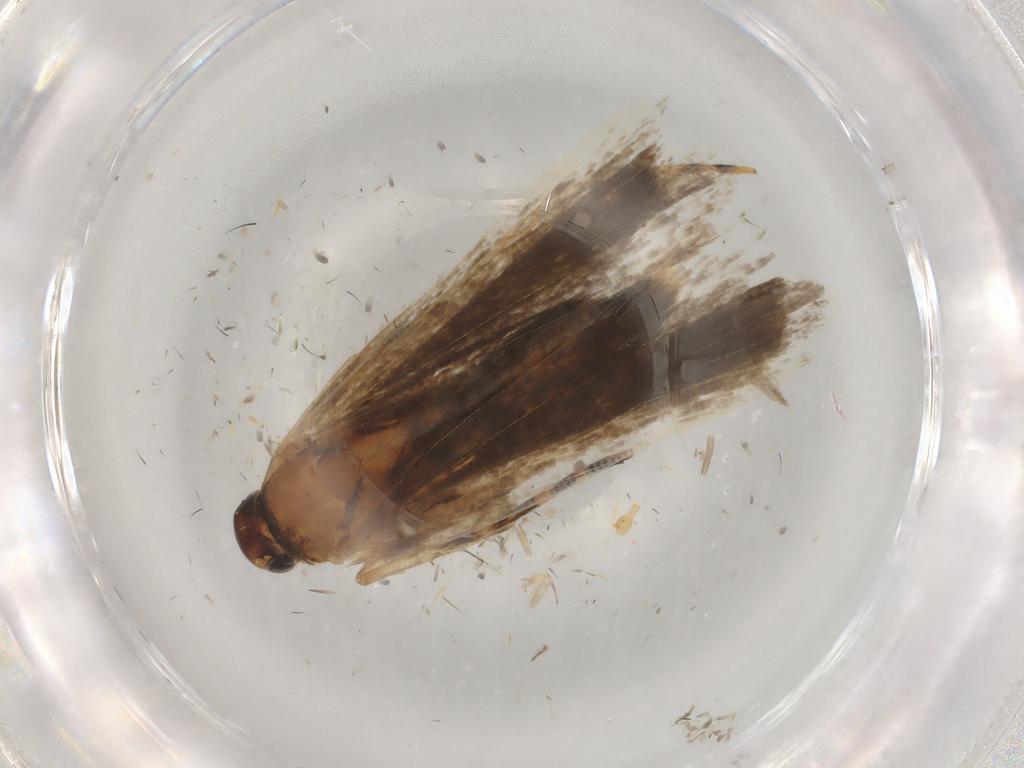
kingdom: Animalia
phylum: Arthropoda
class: Insecta
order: Lepidoptera
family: Gelechiidae
